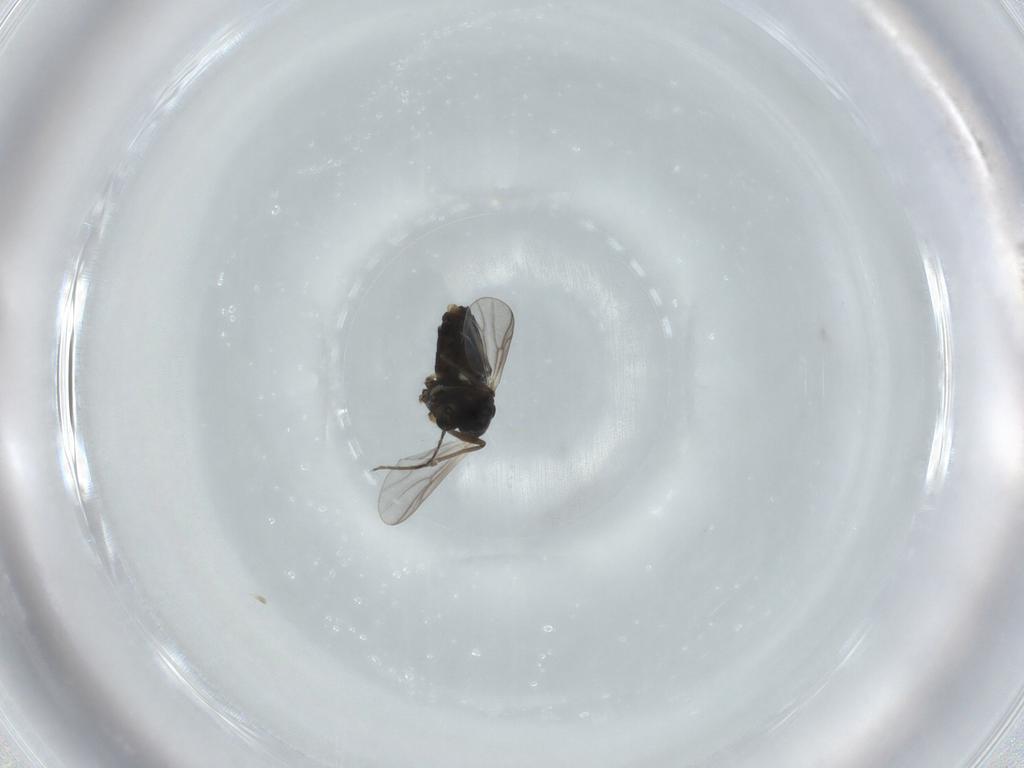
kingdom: Animalia
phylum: Arthropoda
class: Insecta
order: Diptera
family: Chironomidae
